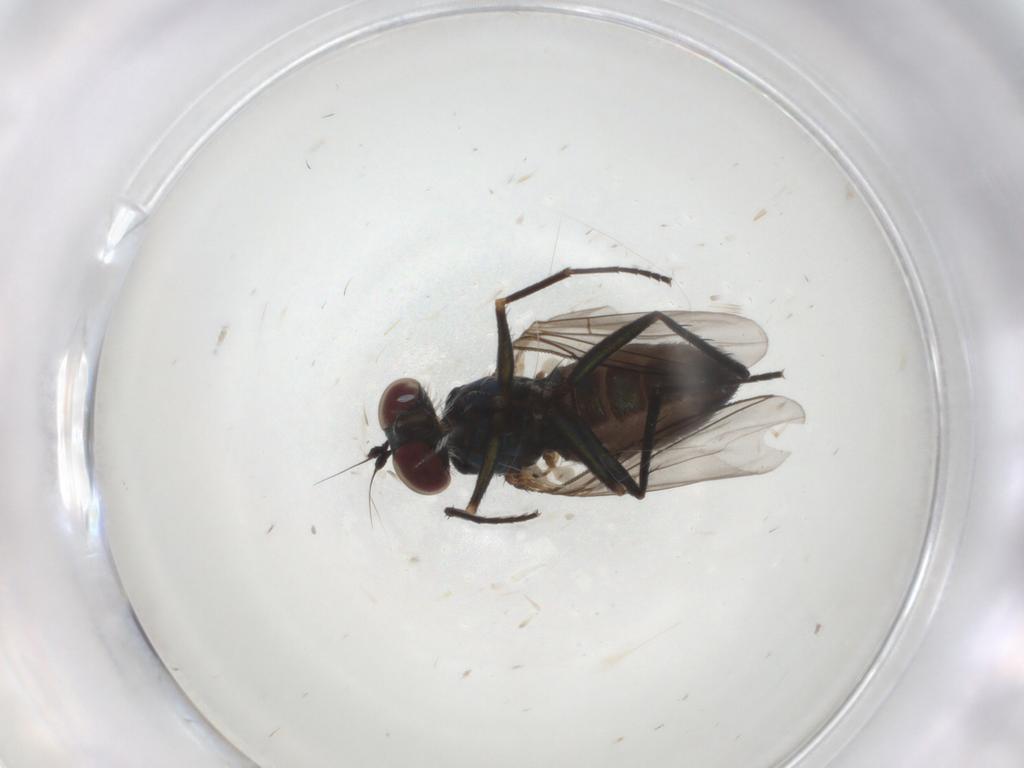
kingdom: Animalia
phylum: Arthropoda
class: Insecta
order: Diptera
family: Dolichopodidae
